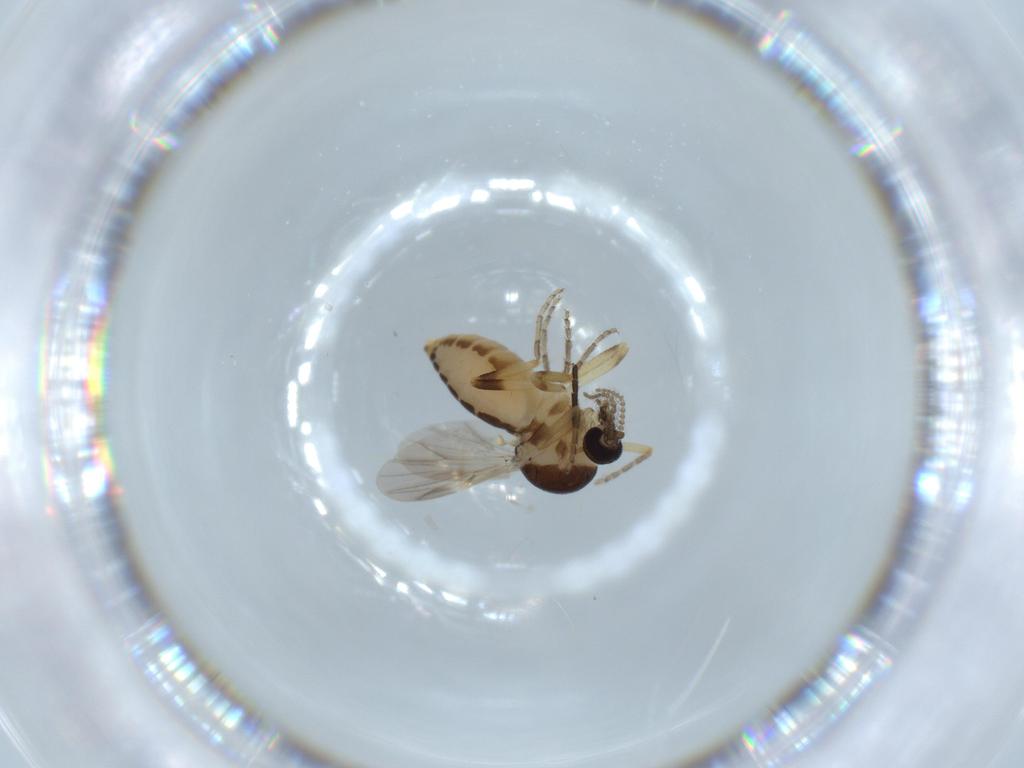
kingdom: Animalia
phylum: Arthropoda
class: Insecta
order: Diptera
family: Ceratopogonidae
